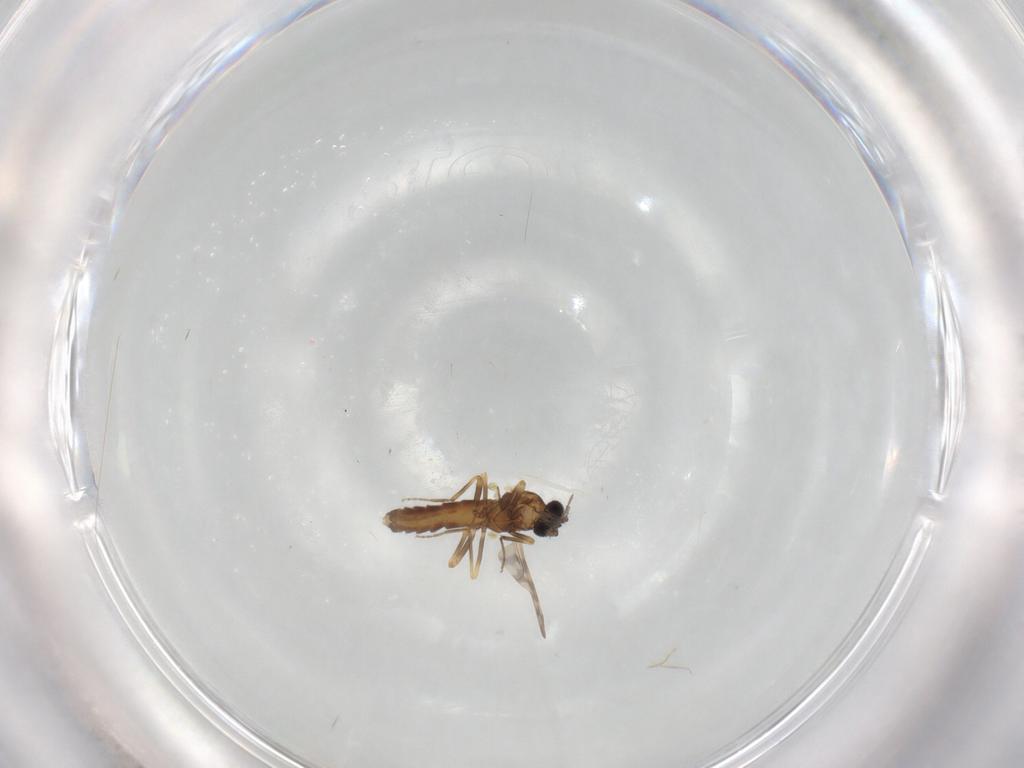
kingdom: Animalia
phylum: Arthropoda
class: Insecta
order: Diptera
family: Ceratopogonidae
